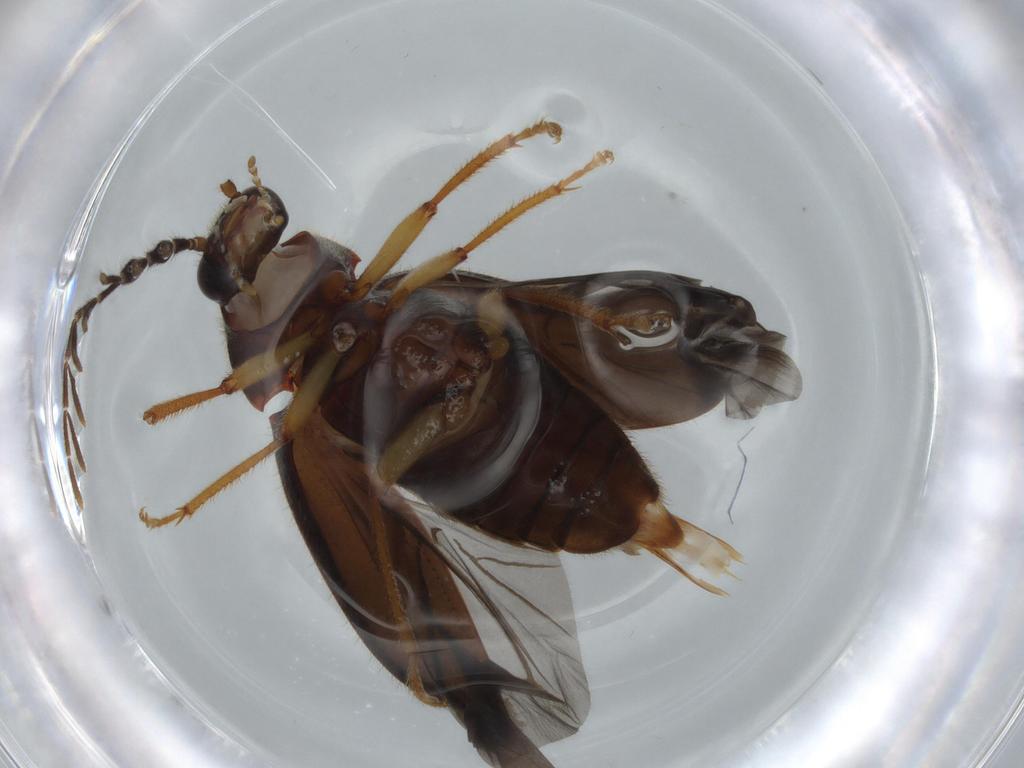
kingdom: Animalia
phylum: Arthropoda
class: Insecta
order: Coleoptera
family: Ptilodactylidae
